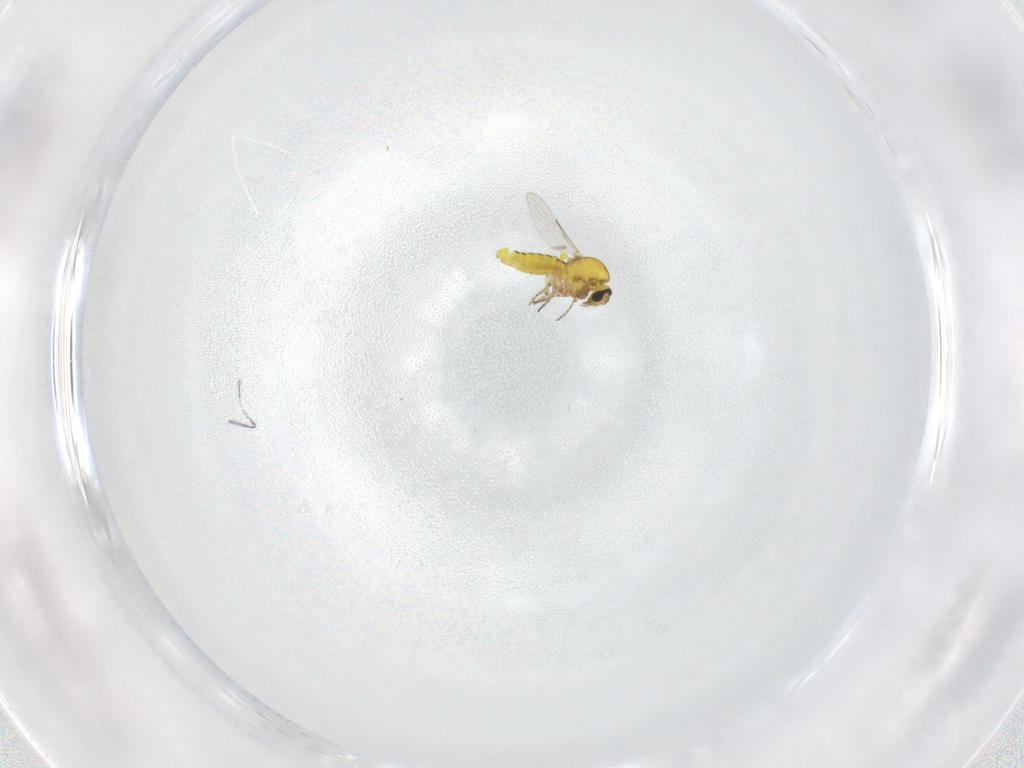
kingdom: Animalia
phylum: Arthropoda
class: Insecta
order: Diptera
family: Ceratopogonidae
